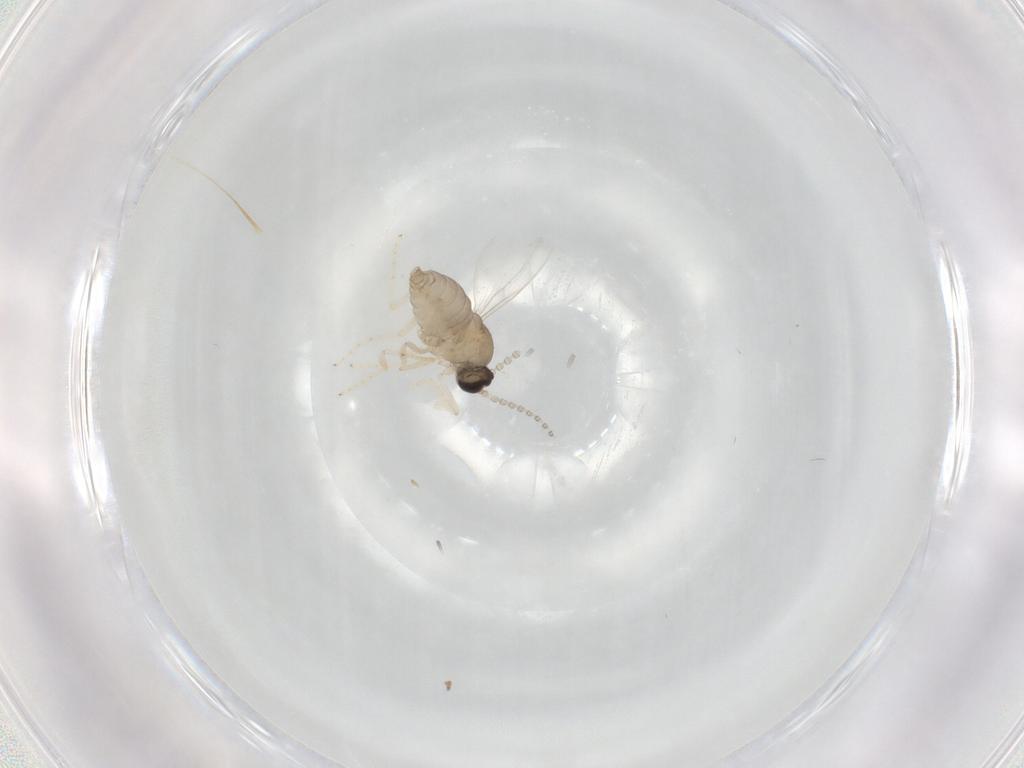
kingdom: Animalia
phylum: Arthropoda
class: Insecta
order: Diptera
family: Cecidomyiidae
